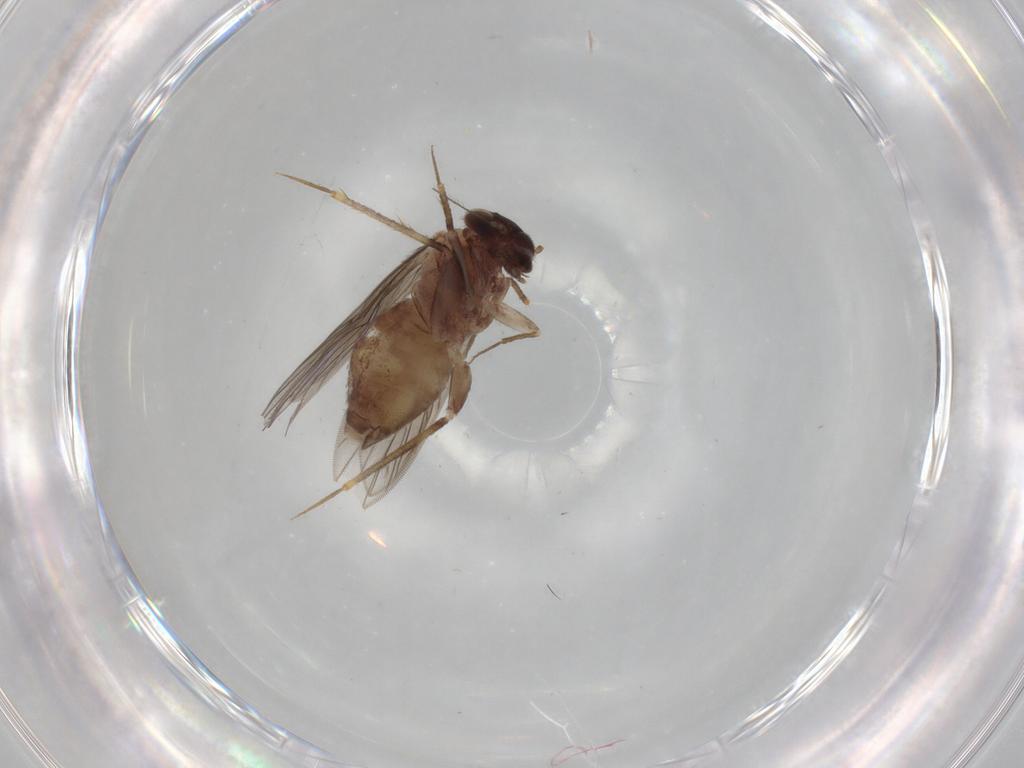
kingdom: Animalia
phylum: Arthropoda
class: Insecta
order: Psocodea
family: Lepidopsocidae
